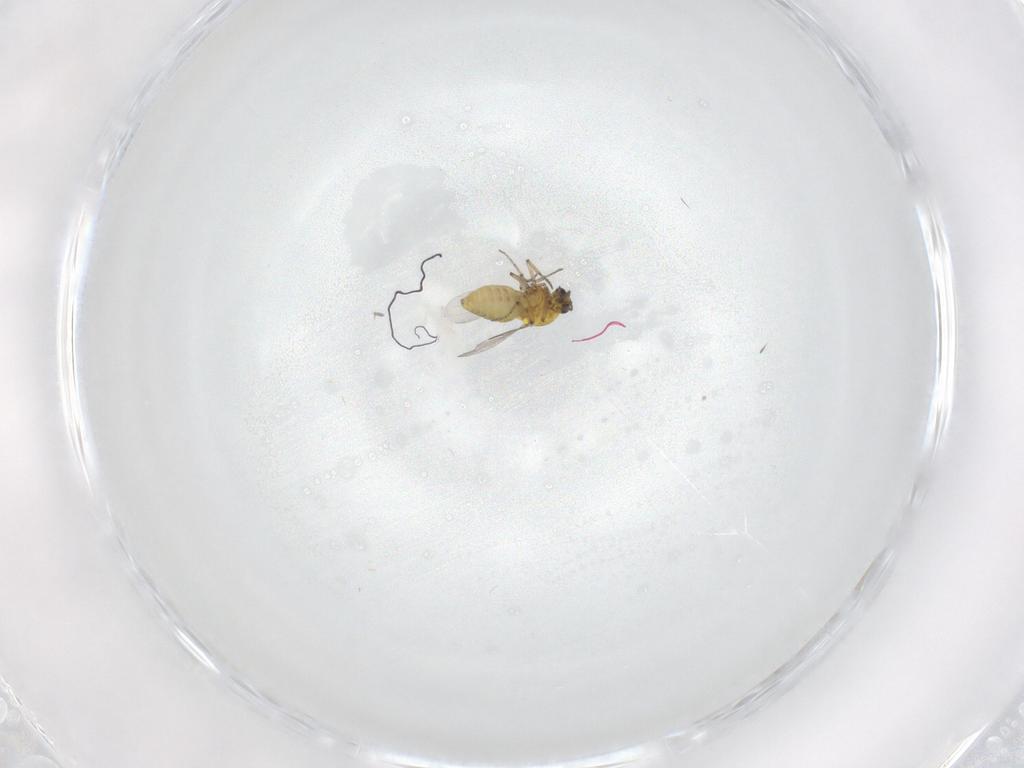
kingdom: Animalia
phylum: Arthropoda
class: Insecta
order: Diptera
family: Ceratopogonidae
